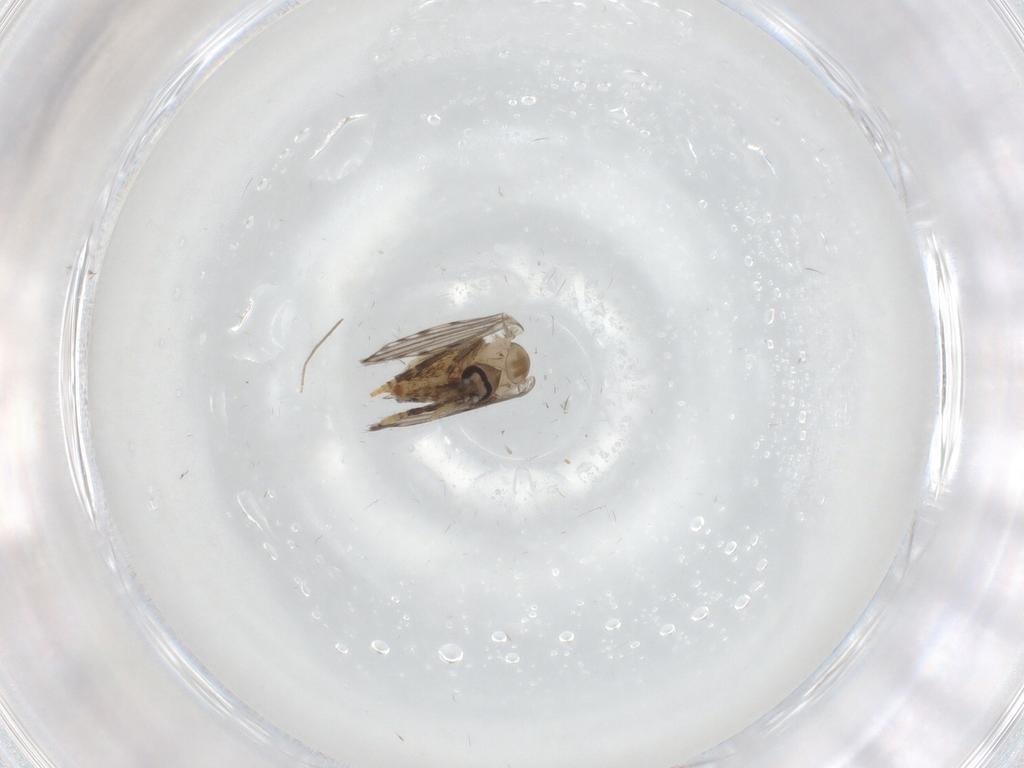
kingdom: Animalia
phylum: Arthropoda
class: Insecta
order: Diptera
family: Psychodidae
